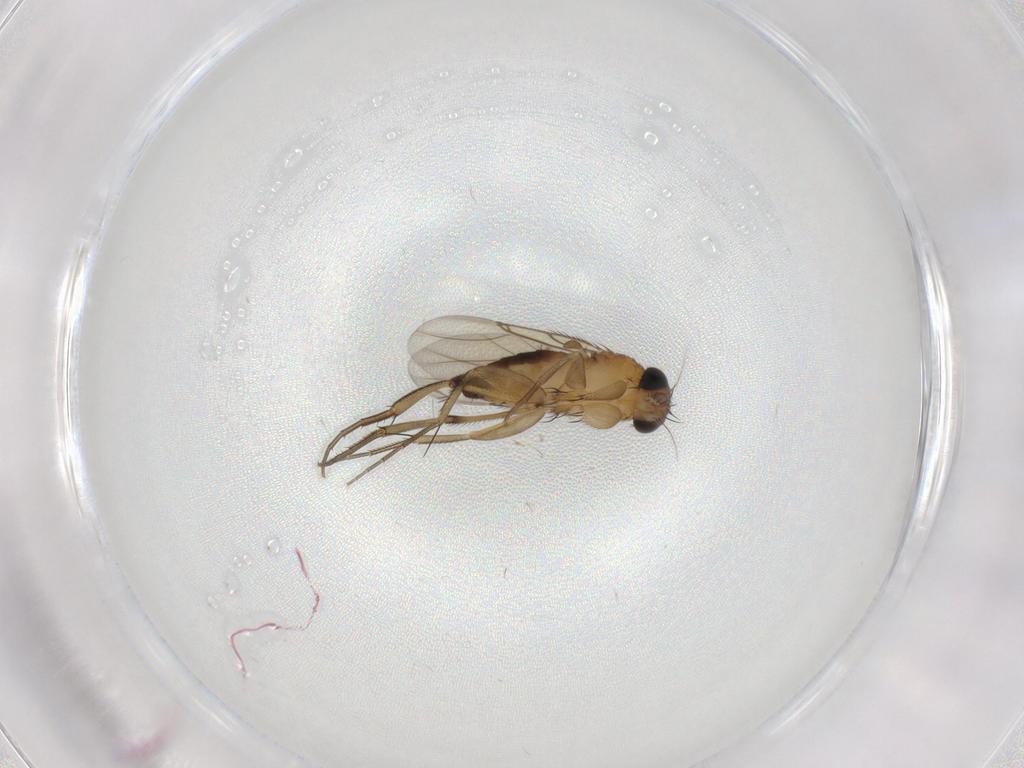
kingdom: Animalia
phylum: Arthropoda
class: Insecta
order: Diptera
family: Phoridae
